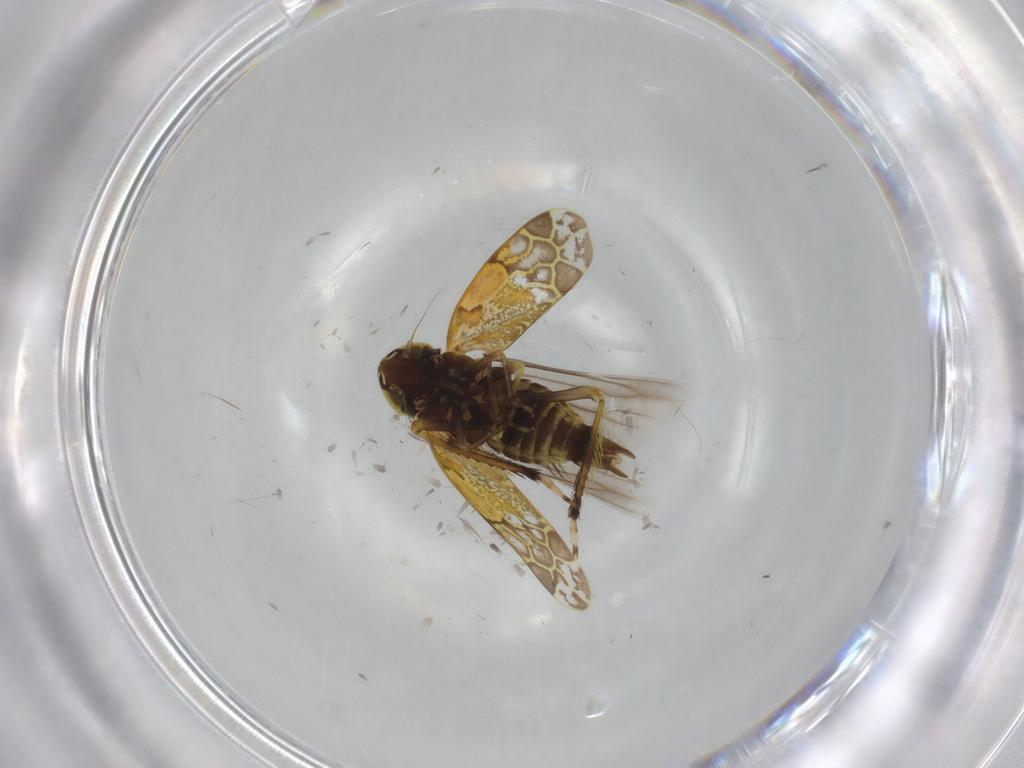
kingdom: Animalia
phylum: Arthropoda
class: Insecta
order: Hemiptera
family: Cicadellidae
